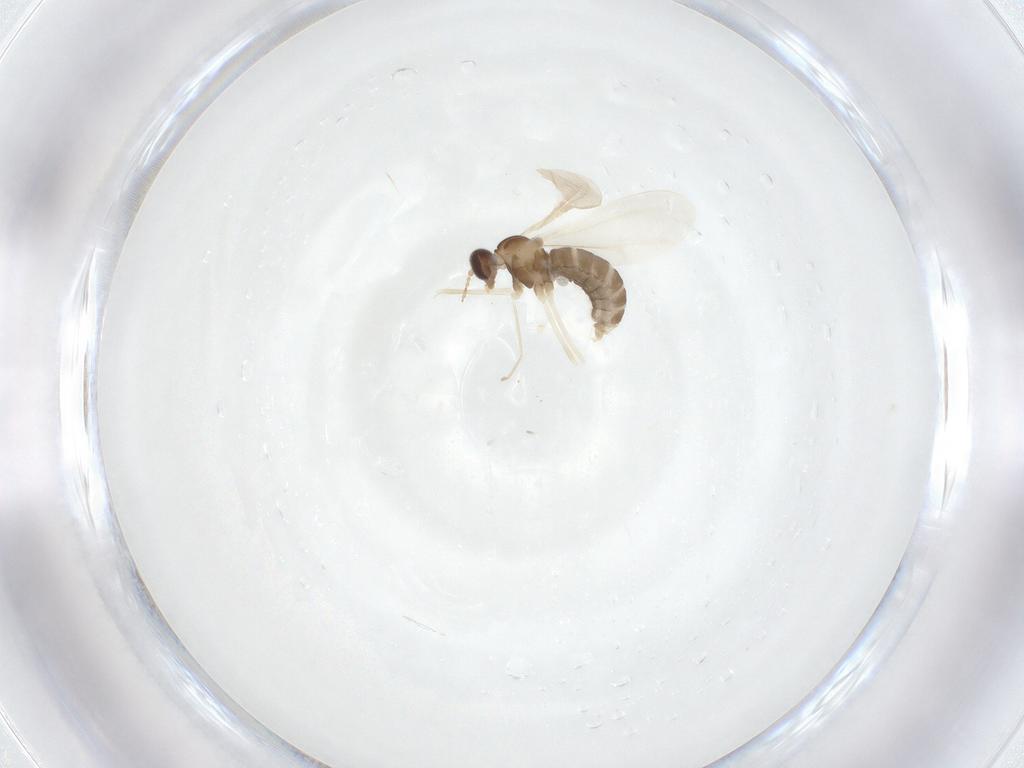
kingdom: Animalia
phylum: Arthropoda
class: Insecta
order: Diptera
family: Cecidomyiidae
